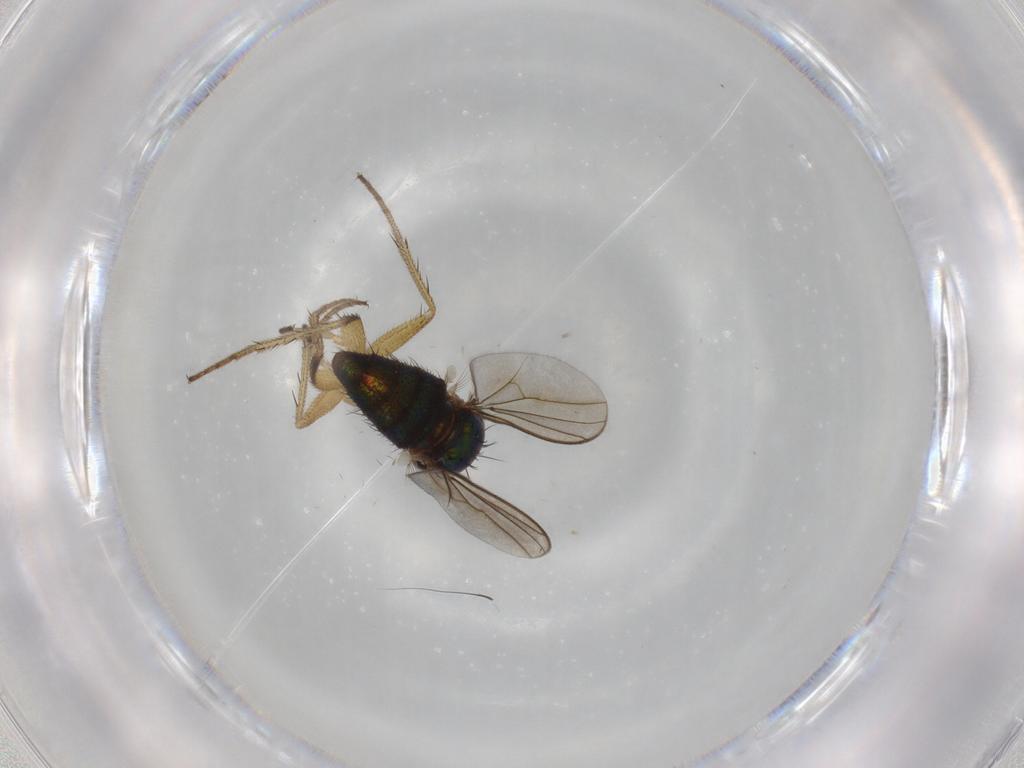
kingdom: Animalia
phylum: Arthropoda
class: Insecta
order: Diptera
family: Dolichopodidae
